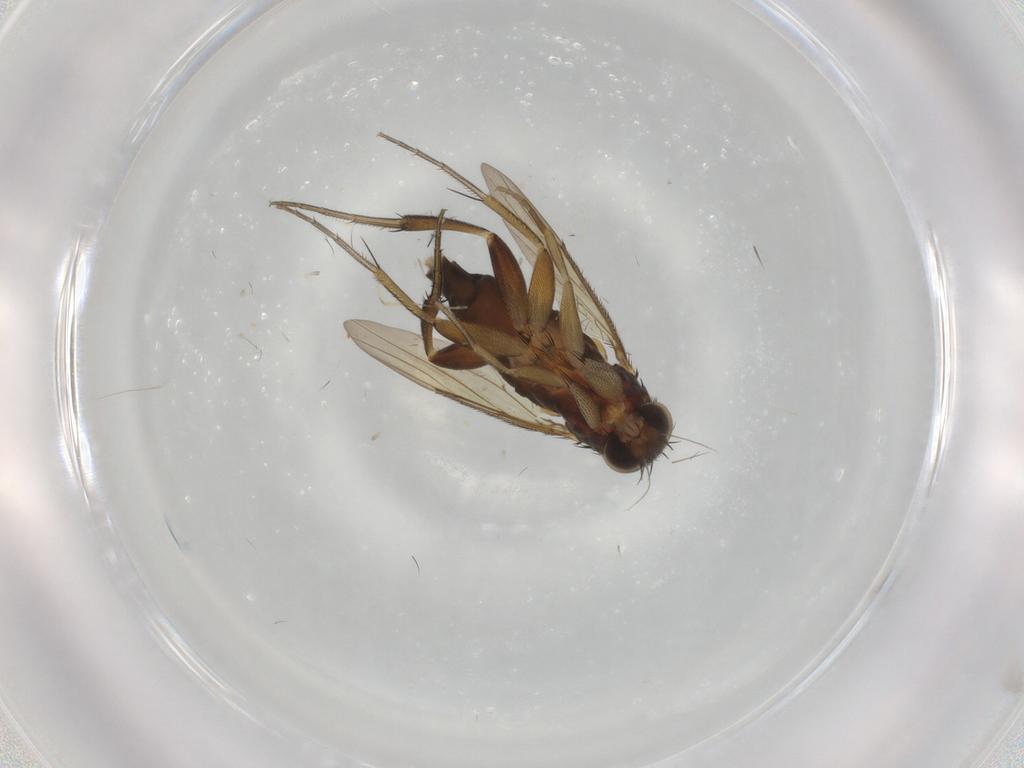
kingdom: Animalia
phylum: Arthropoda
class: Insecta
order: Diptera
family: Phoridae
